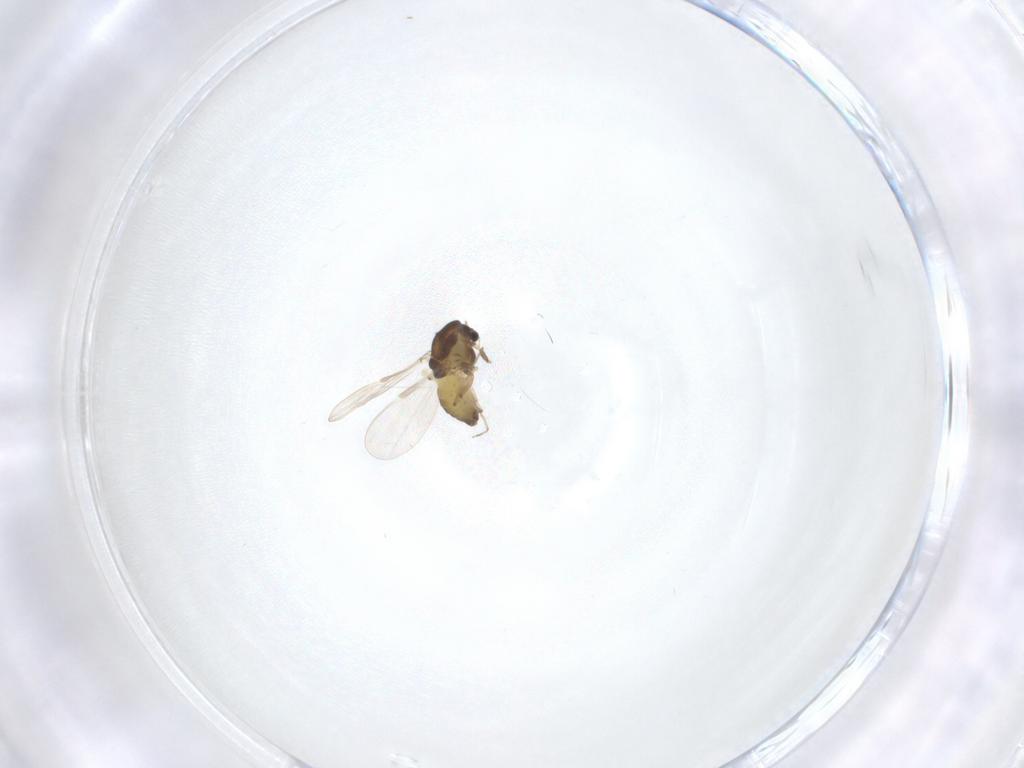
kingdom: Animalia
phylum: Arthropoda
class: Insecta
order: Diptera
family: Chironomidae
